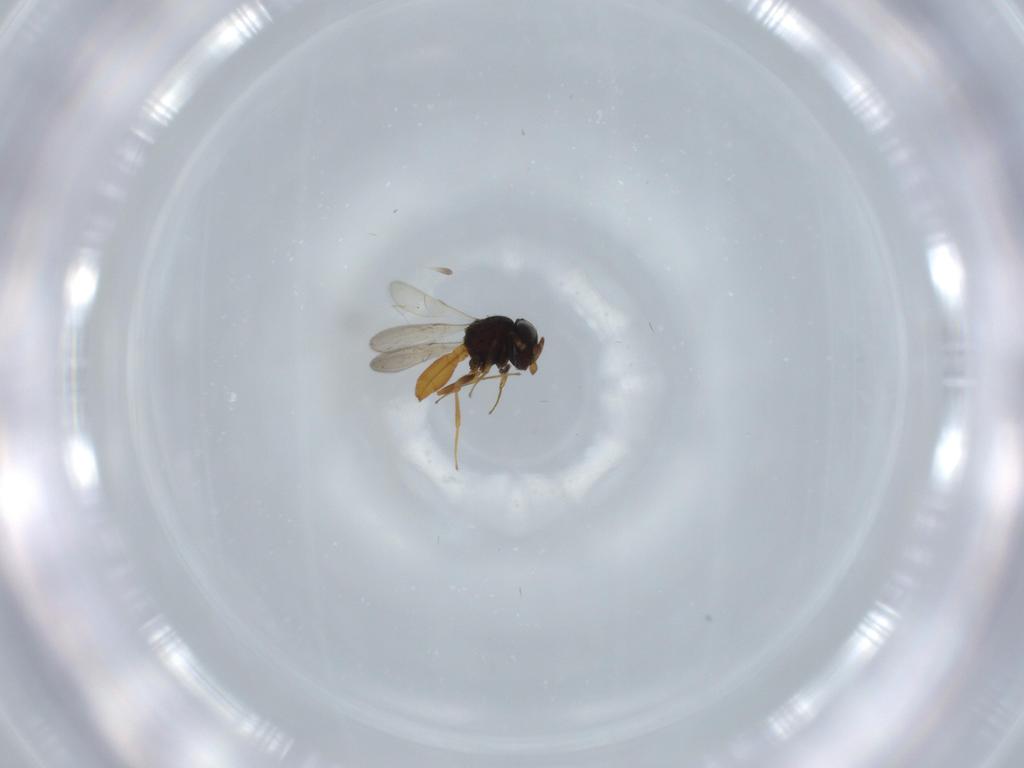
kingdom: Animalia
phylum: Arthropoda
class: Insecta
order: Hymenoptera
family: Scelionidae
